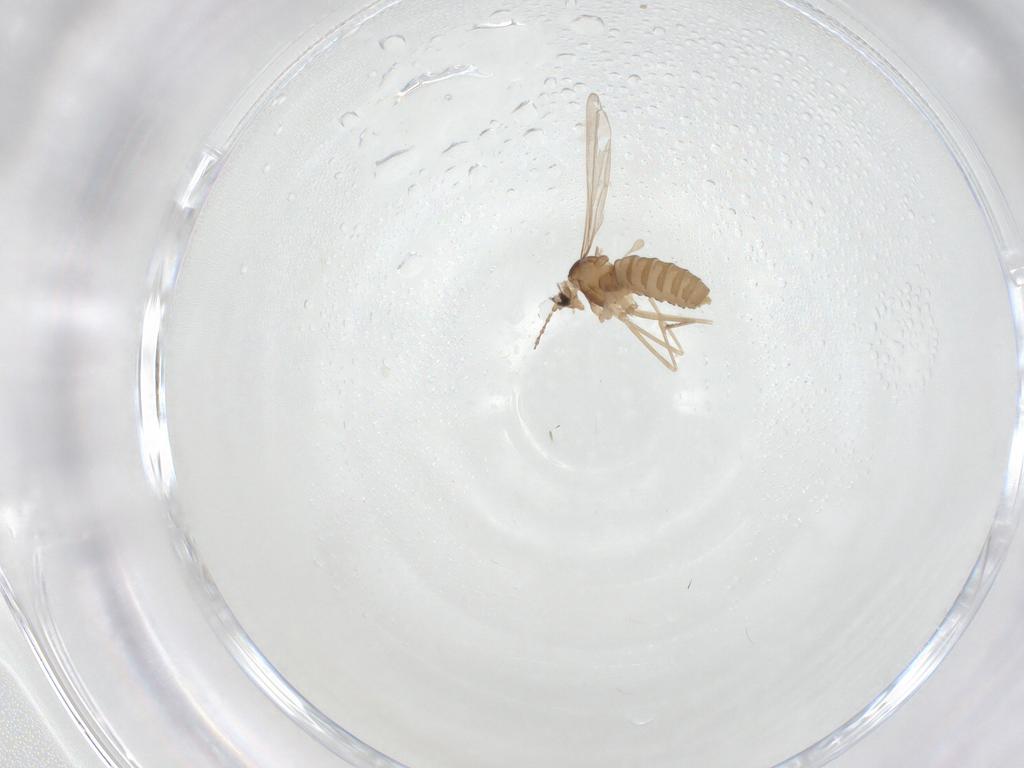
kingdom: Animalia
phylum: Arthropoda
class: Insecta
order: Diptera
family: Cecidomyiidae
